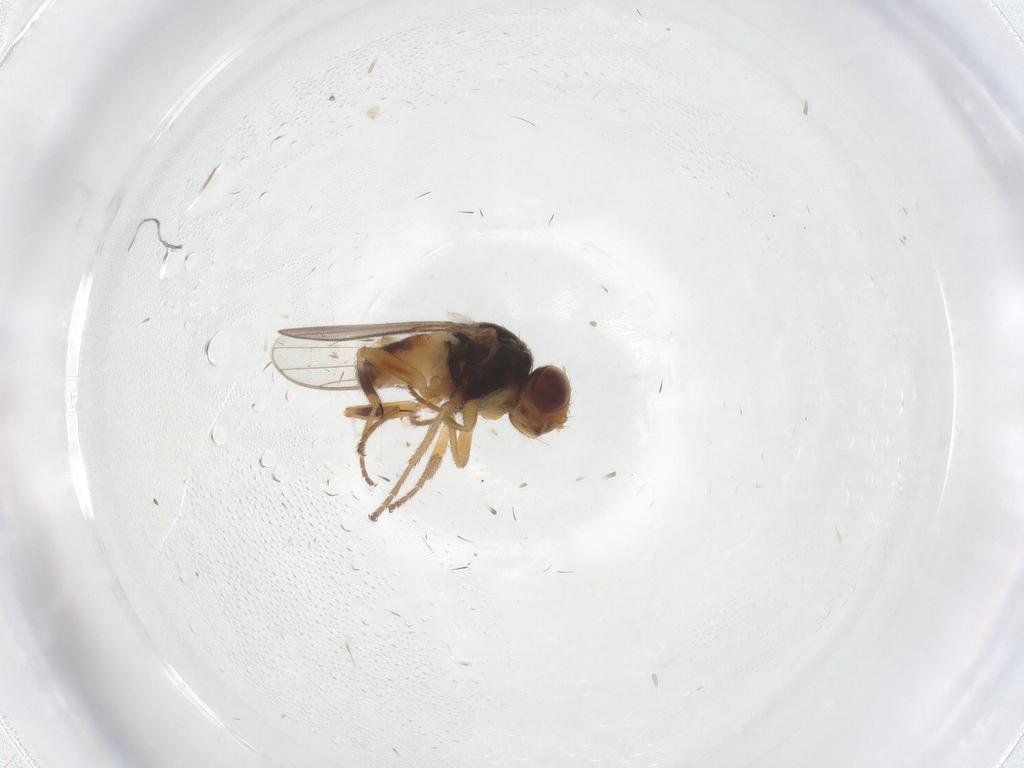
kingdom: Animalia
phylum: Arthropoda
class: Insecta
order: Diptera
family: Chloropidae
